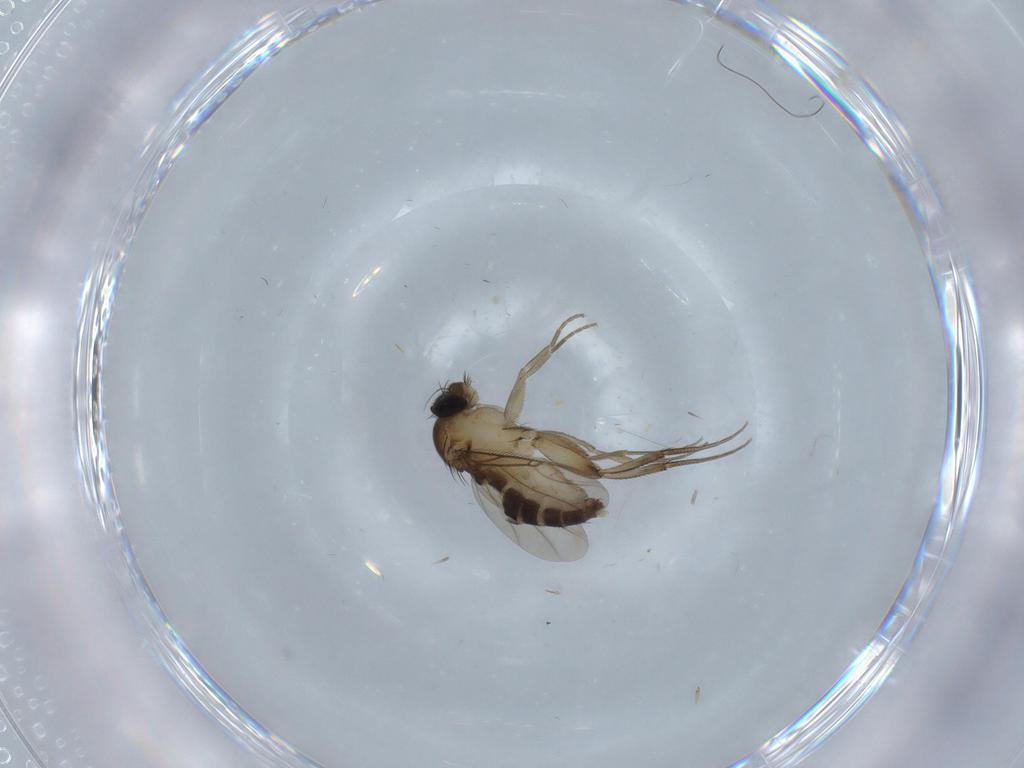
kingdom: Animalia
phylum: Arthropoda
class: Insecta
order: Diptera
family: Phoridae
